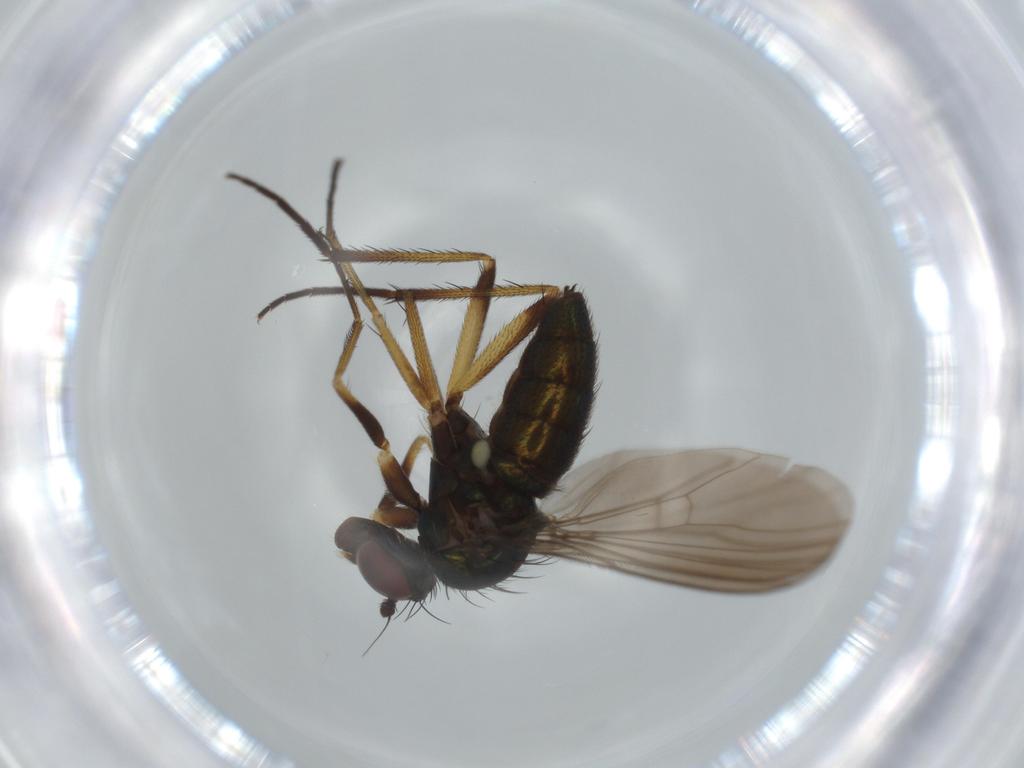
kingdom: Animalia
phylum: Arthropoda
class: Insecta
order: Diptera
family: Dolichopodidae
